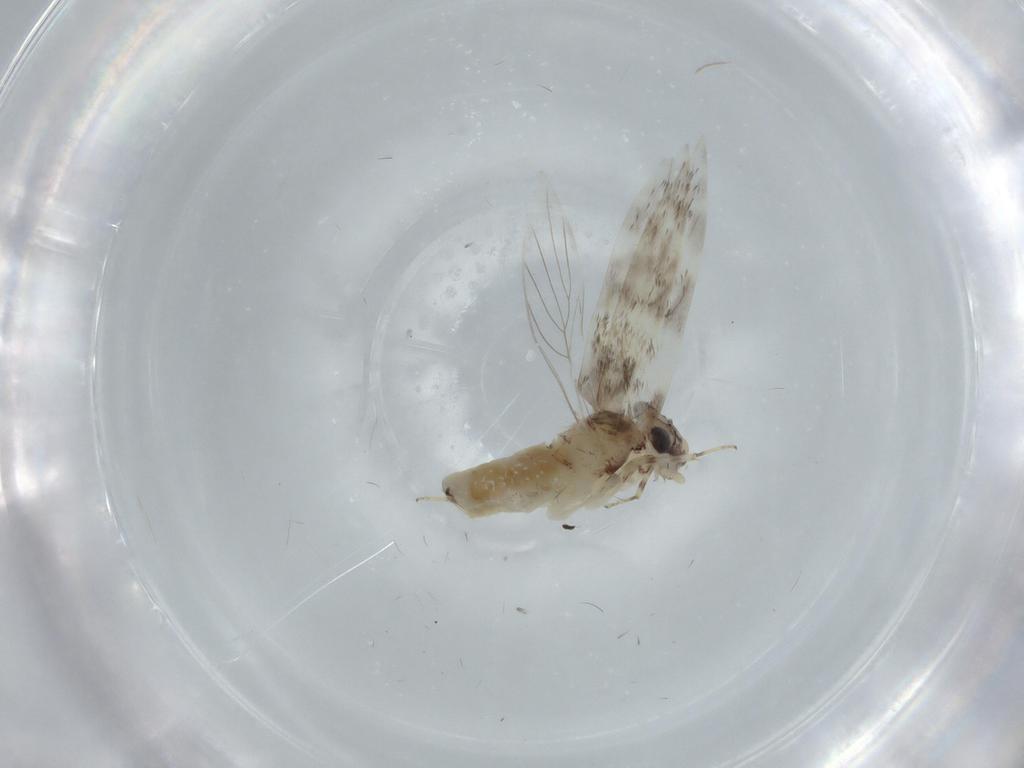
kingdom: Animalia
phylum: Arthropoda
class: Insecta
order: Psocodea
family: Lepidopsocidae
